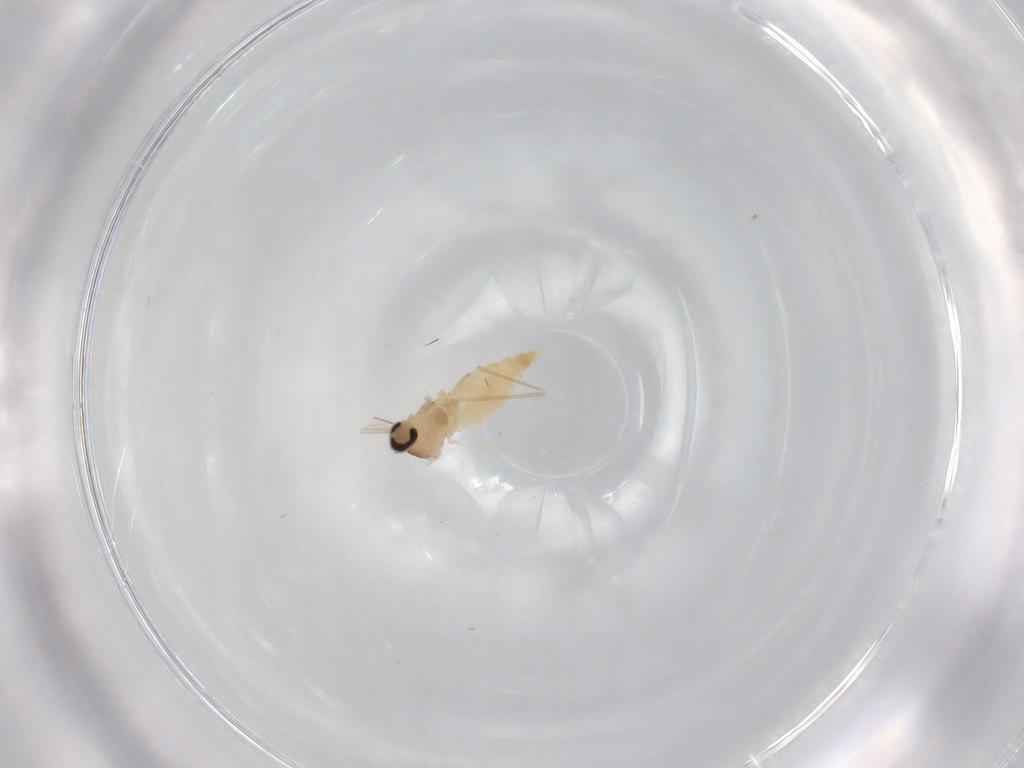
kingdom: Animalia
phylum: Arthropoda
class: Insecta
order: Diptera
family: Cecidomyiidae
